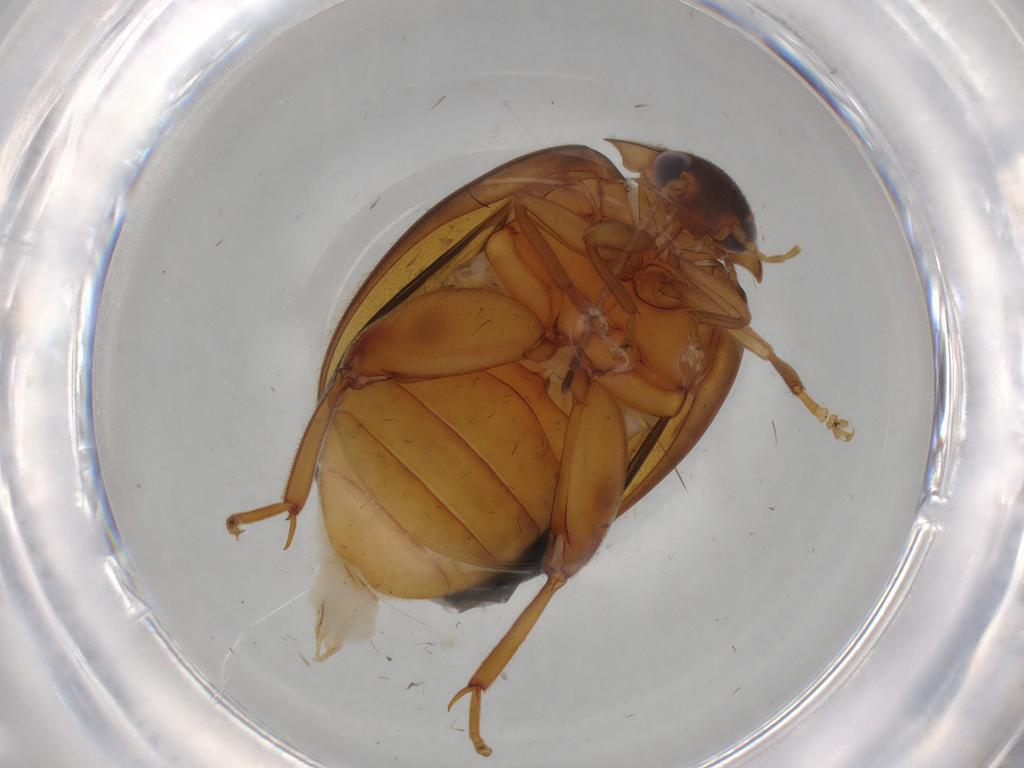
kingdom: Animalia
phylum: Arthropoda
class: Insecta
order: Coleoptera
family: Scirtidae
